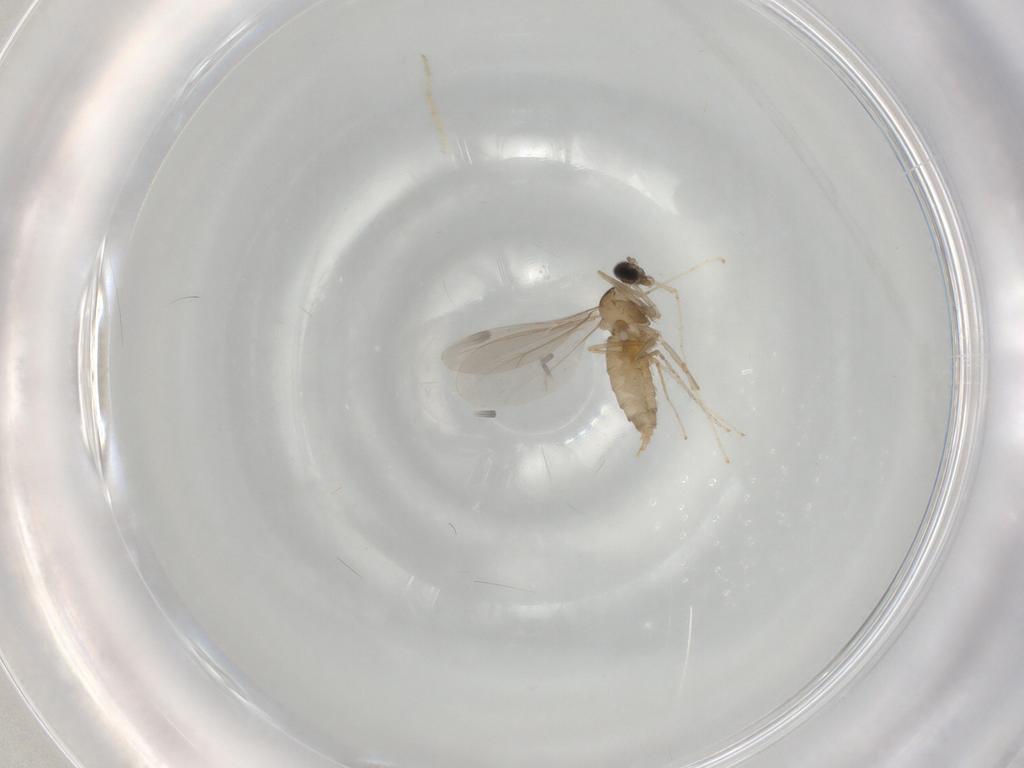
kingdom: Animalia
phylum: Arthropoda
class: Insecta
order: Diptera
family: Cecidomyiidae
